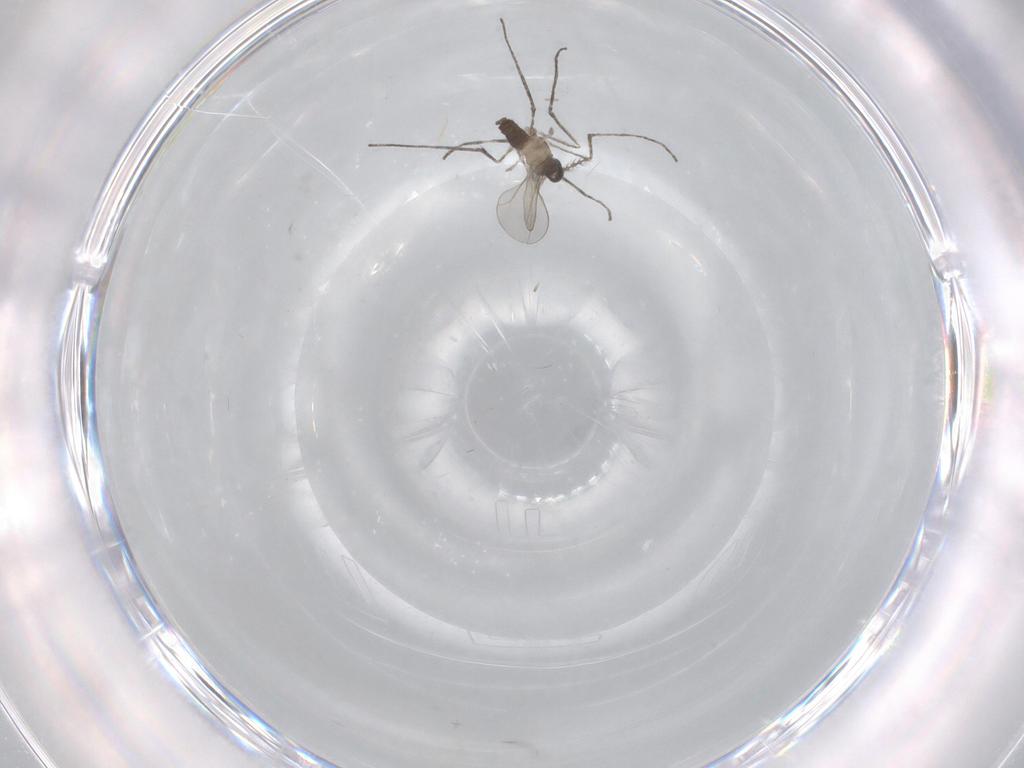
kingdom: Animalia
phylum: Arthropoda
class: Insecta
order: Diptera
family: Cecidomyiidae
